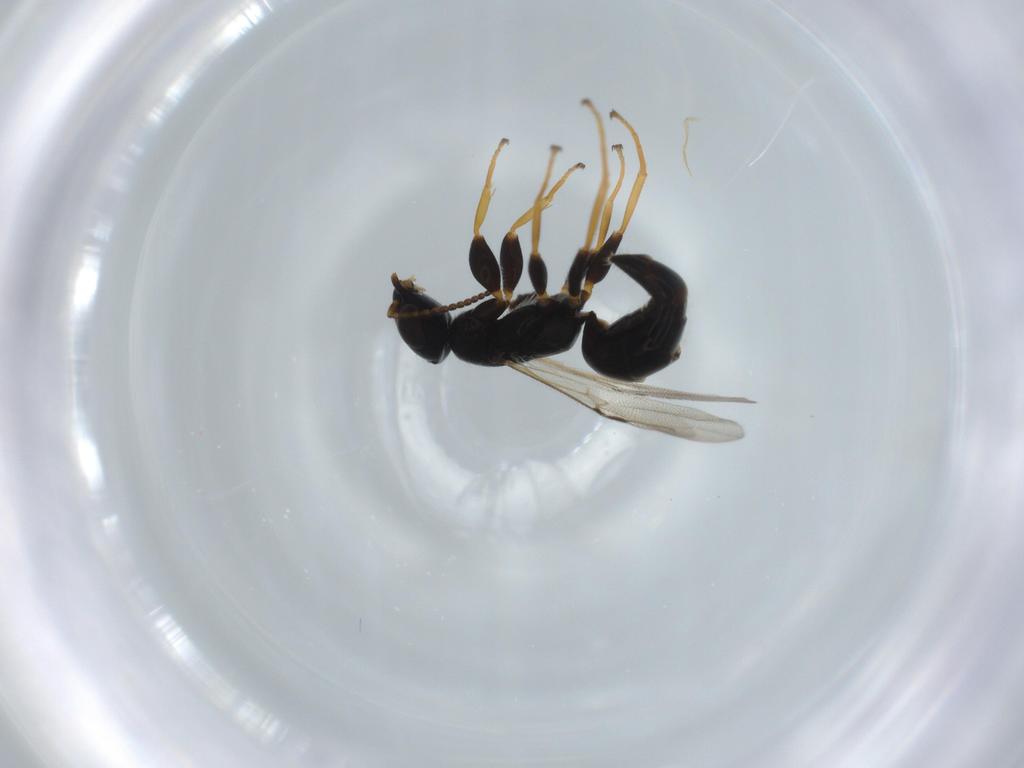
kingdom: Animalia
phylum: Arthropoda
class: Insecta
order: Hymenoptera
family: Bethylidae
